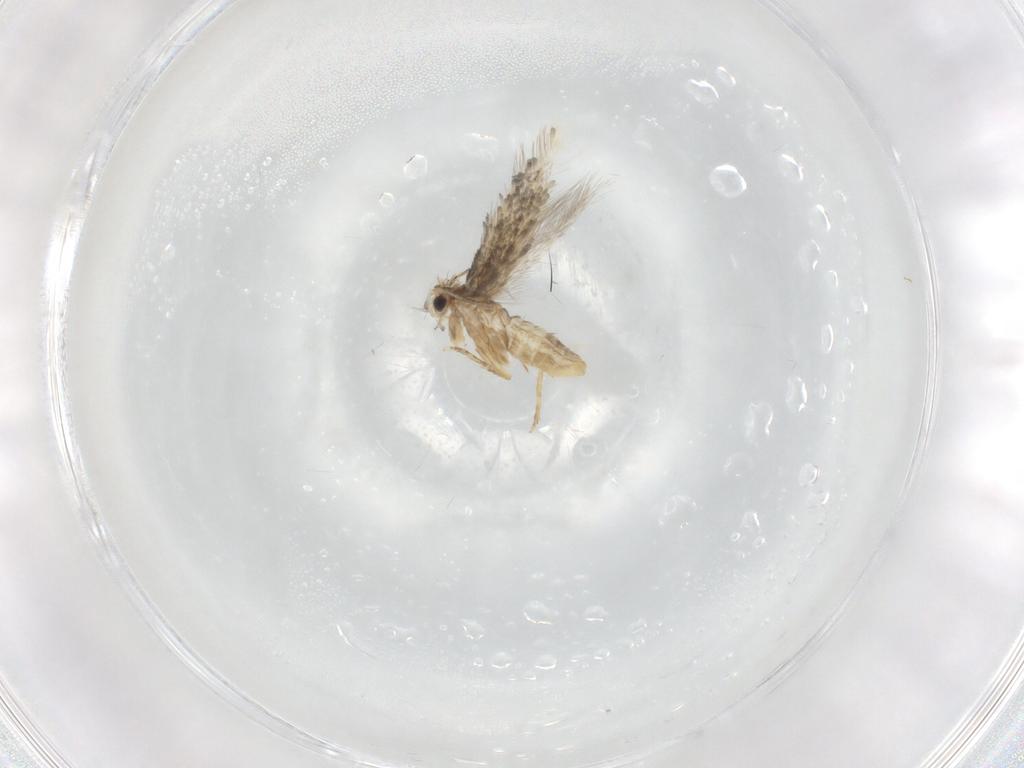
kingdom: Animalia
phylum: Arthropoda
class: Insecta
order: Lepidoptera
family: Nepticulidae
